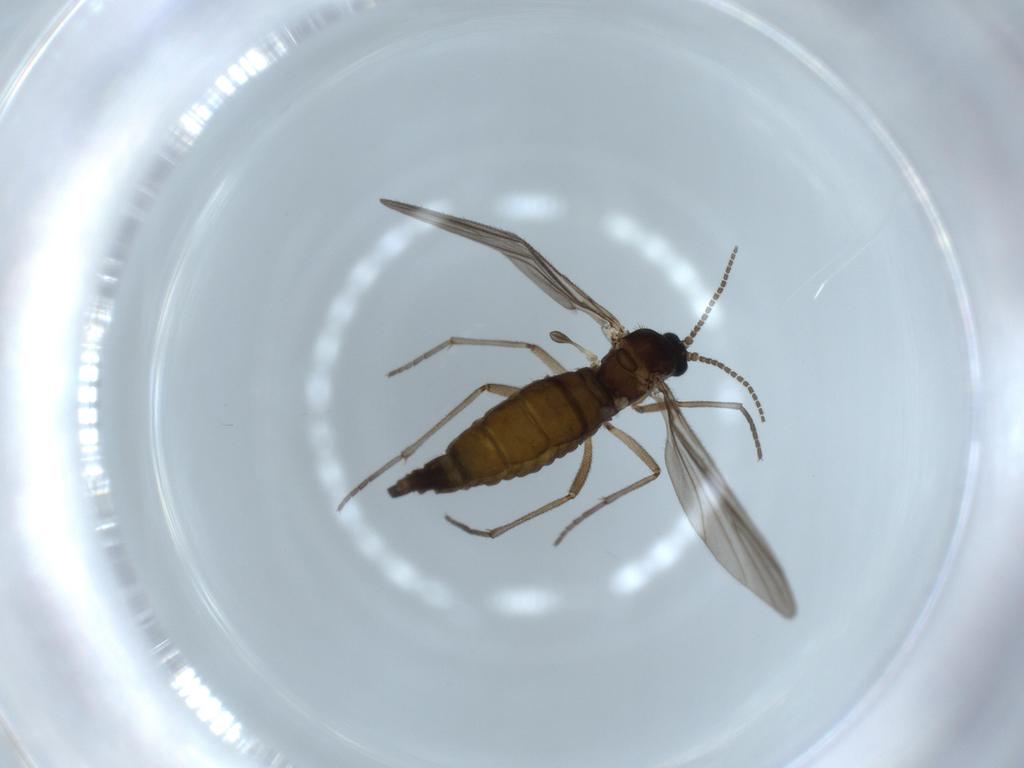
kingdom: Animalia
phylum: Arthropoda
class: Insecta
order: Diptera
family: Sciaridae
